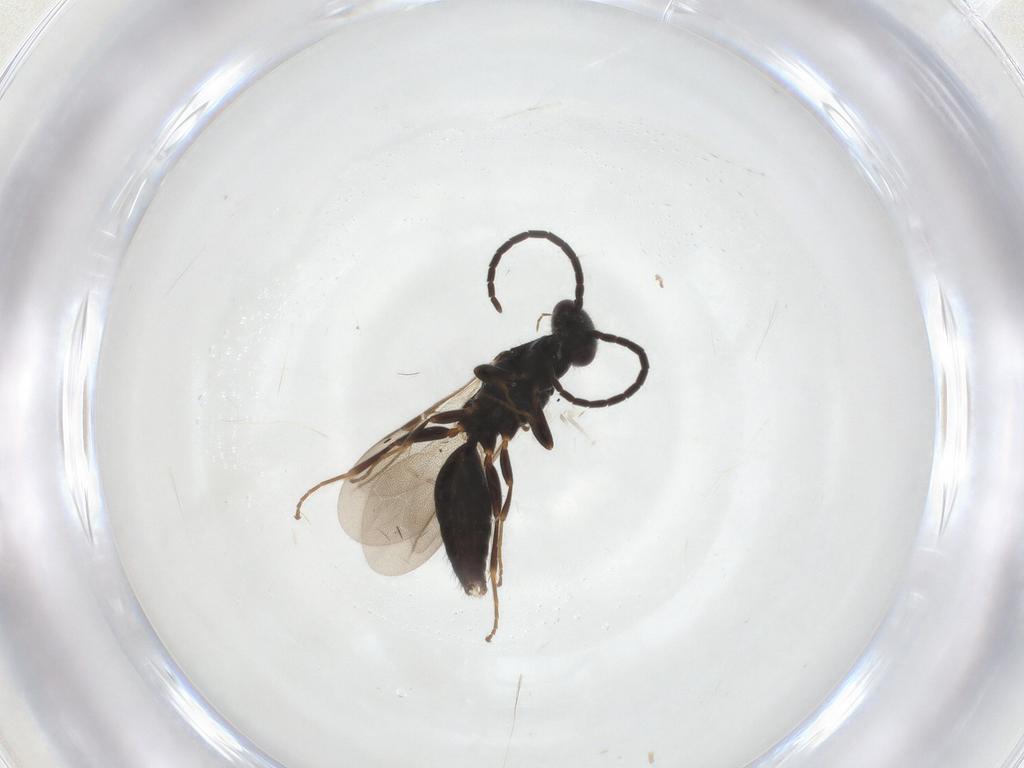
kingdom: Animalia
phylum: Arthropoda
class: Insecta
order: Hymenoptera
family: Bethylidae
